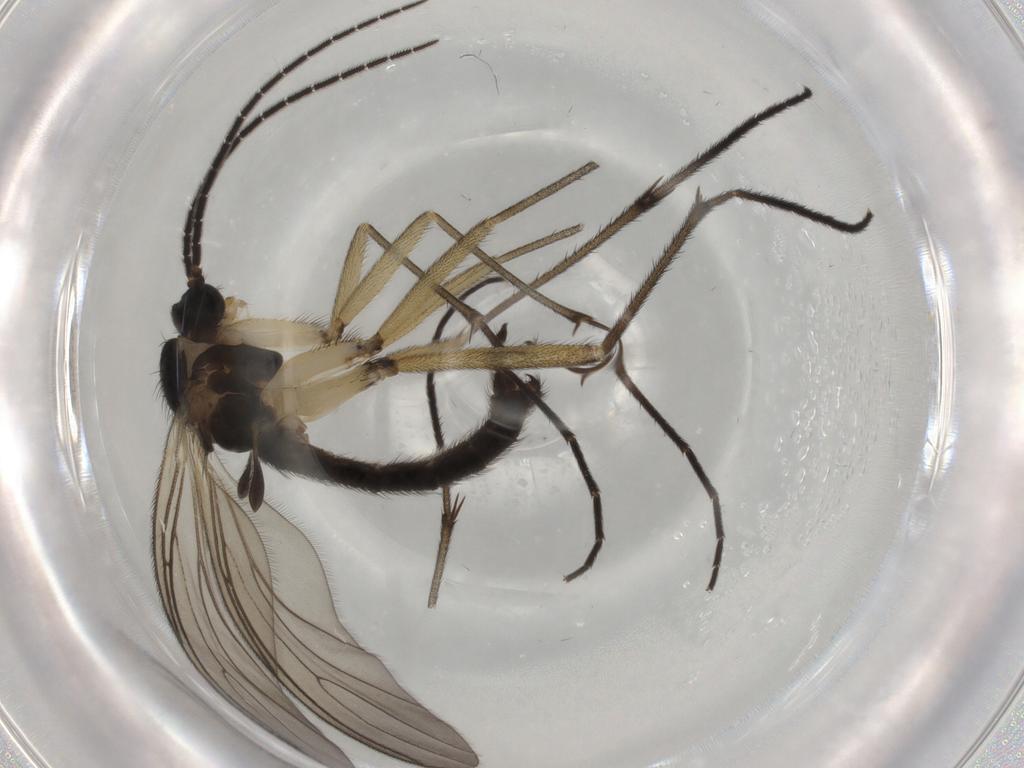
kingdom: Animalia
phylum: Arthropoda
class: Insecta
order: Diptera
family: Sciaridae
